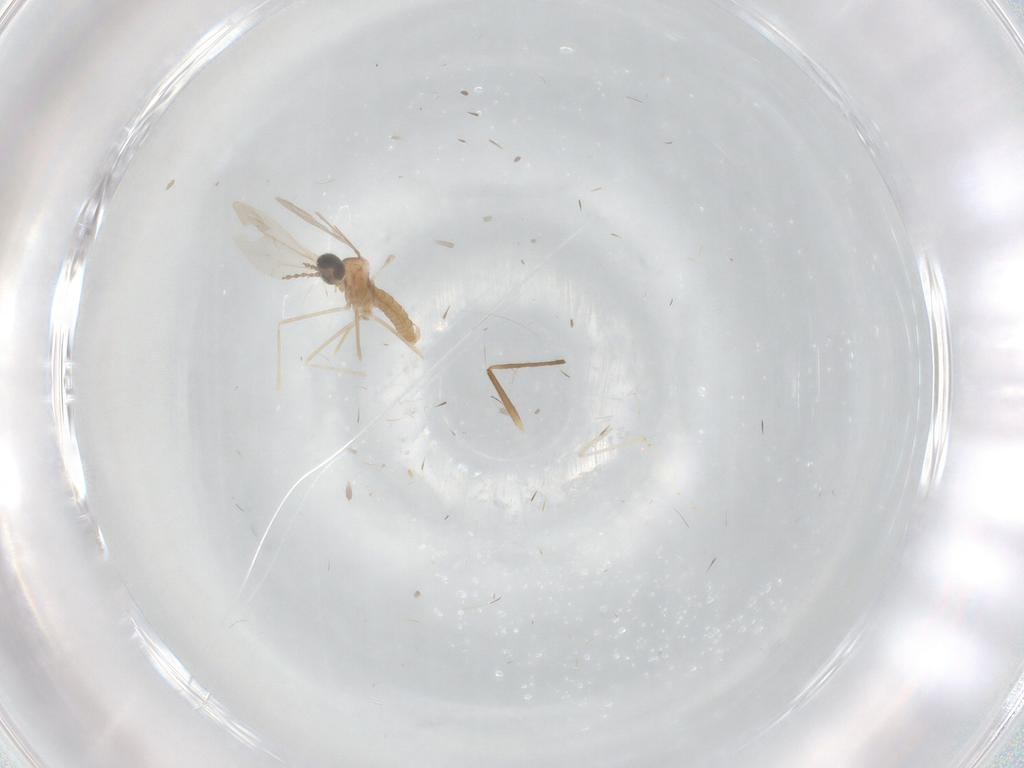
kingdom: Animalia
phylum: Arthropoda
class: Insecta
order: Diptera
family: Cecidomyiidae
